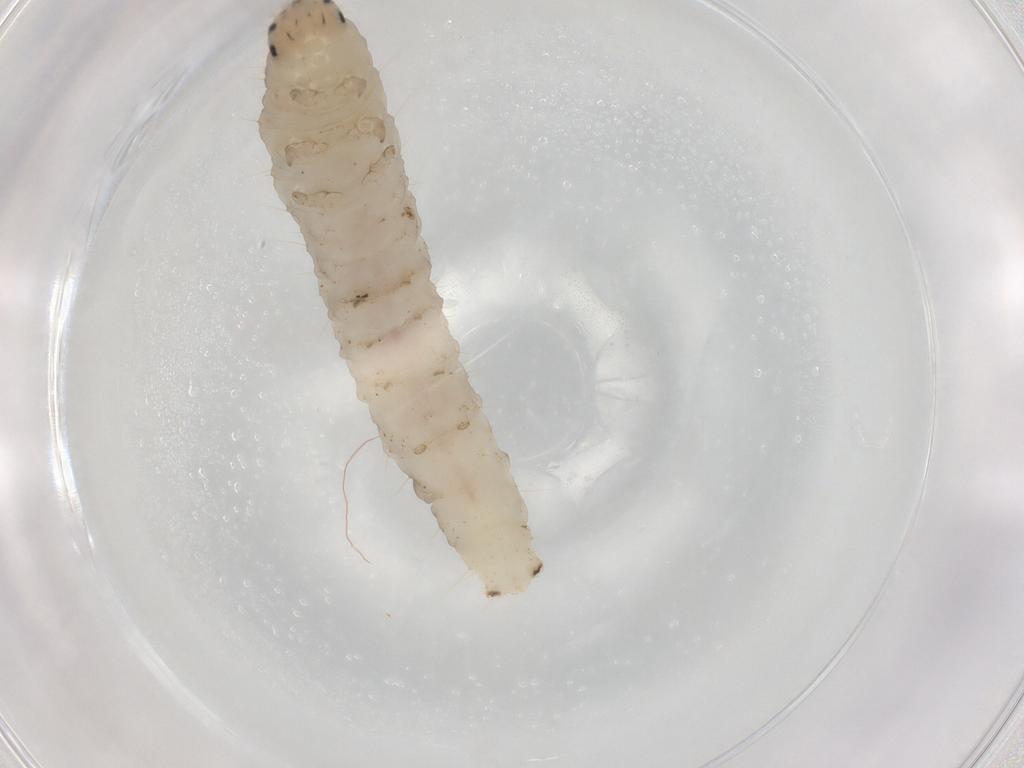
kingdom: Animalia
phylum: Arthropoda
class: Insecta
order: Lepidoptera
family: Tortricidae
